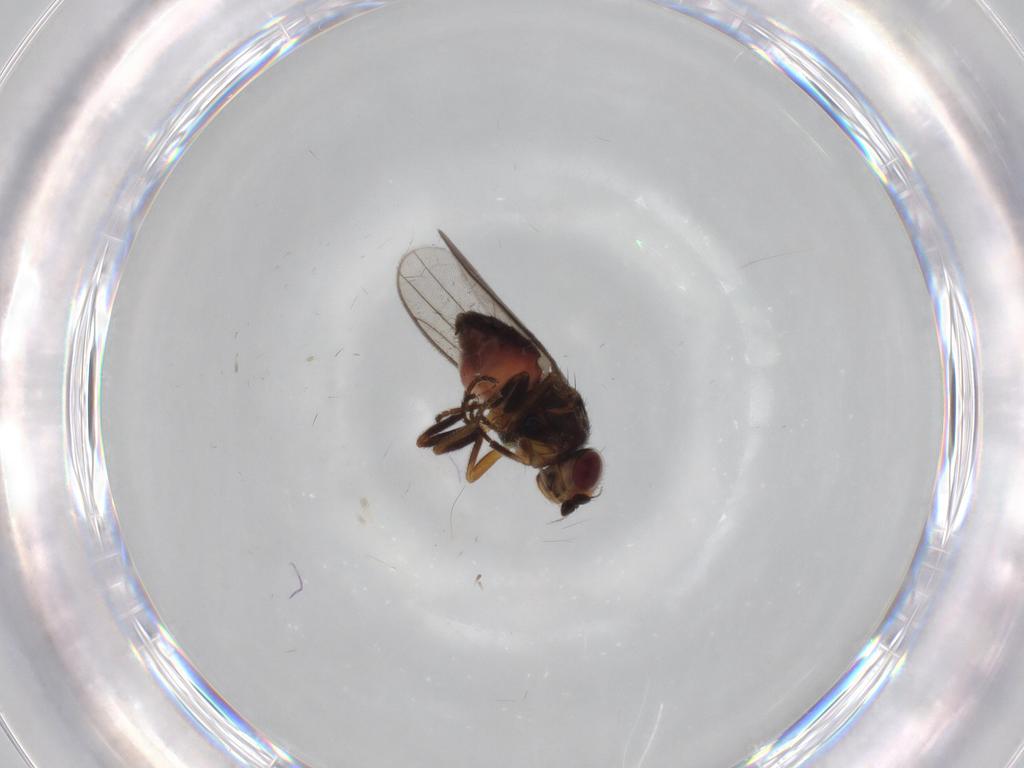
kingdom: Animalia
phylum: Arthropoda
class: Insecta
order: Diptera
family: Chloropidae
